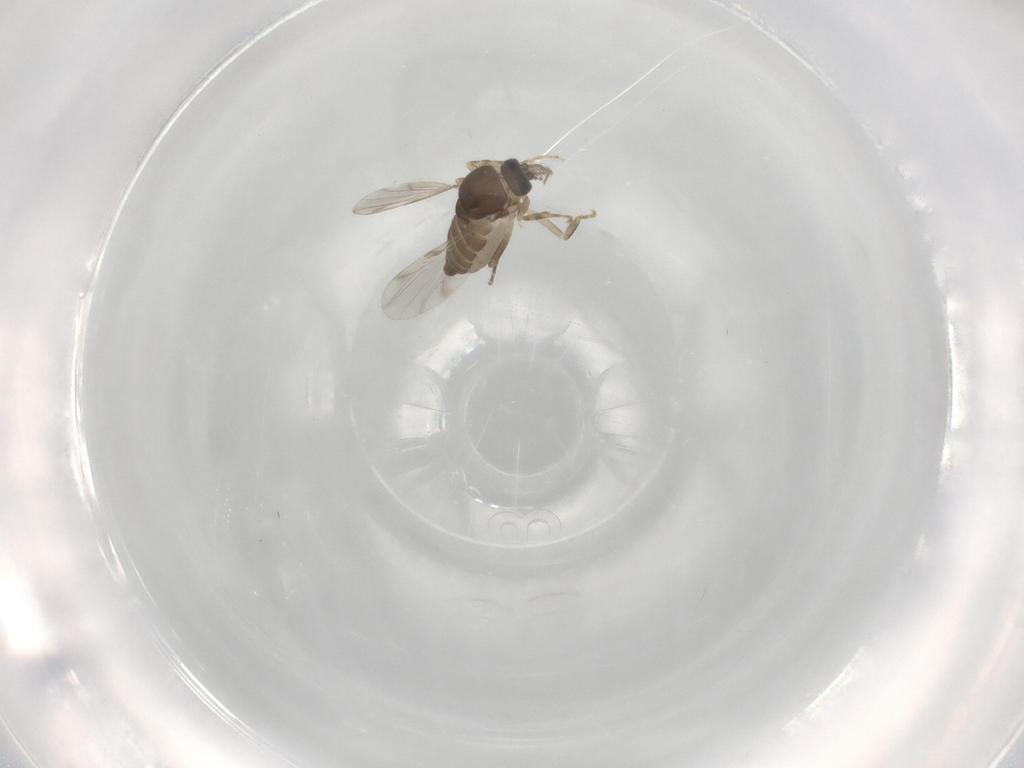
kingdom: Animalia
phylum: Arthropoda
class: Insecta
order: Diptera
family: Ceratopogonidae
